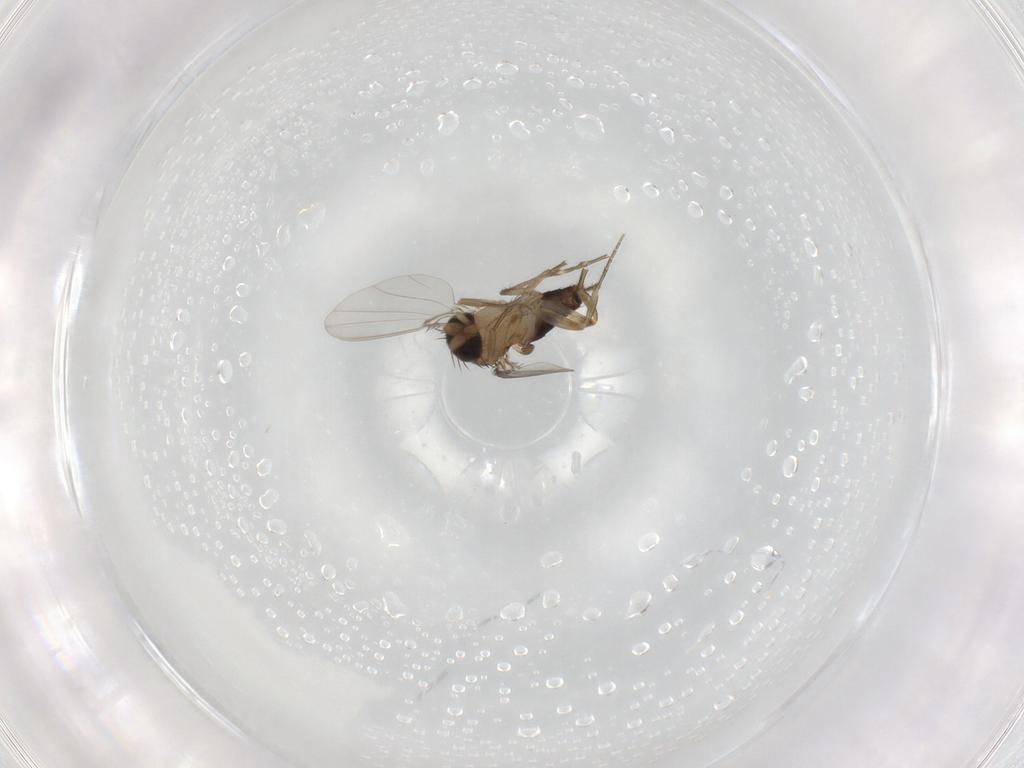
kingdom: Animalia
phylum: Arthropoda
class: Insecta
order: Diptera
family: Phoridae
